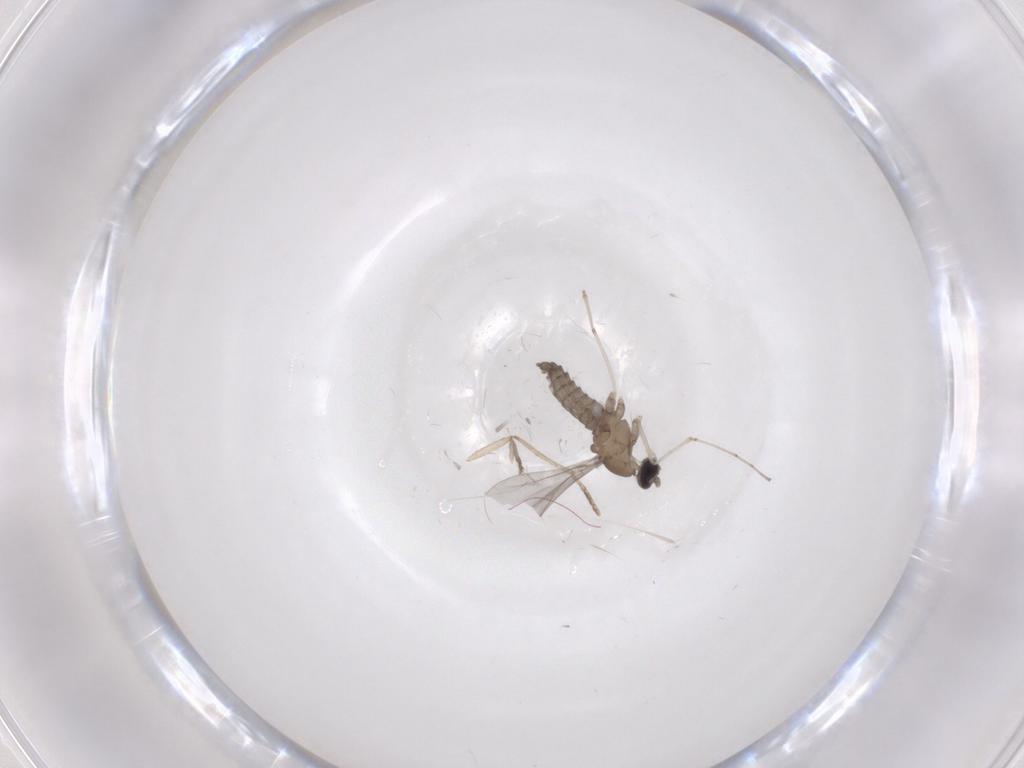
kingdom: Animalia
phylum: Arthropoda
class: Insecta
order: Diptera
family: Cecidomyiidae
